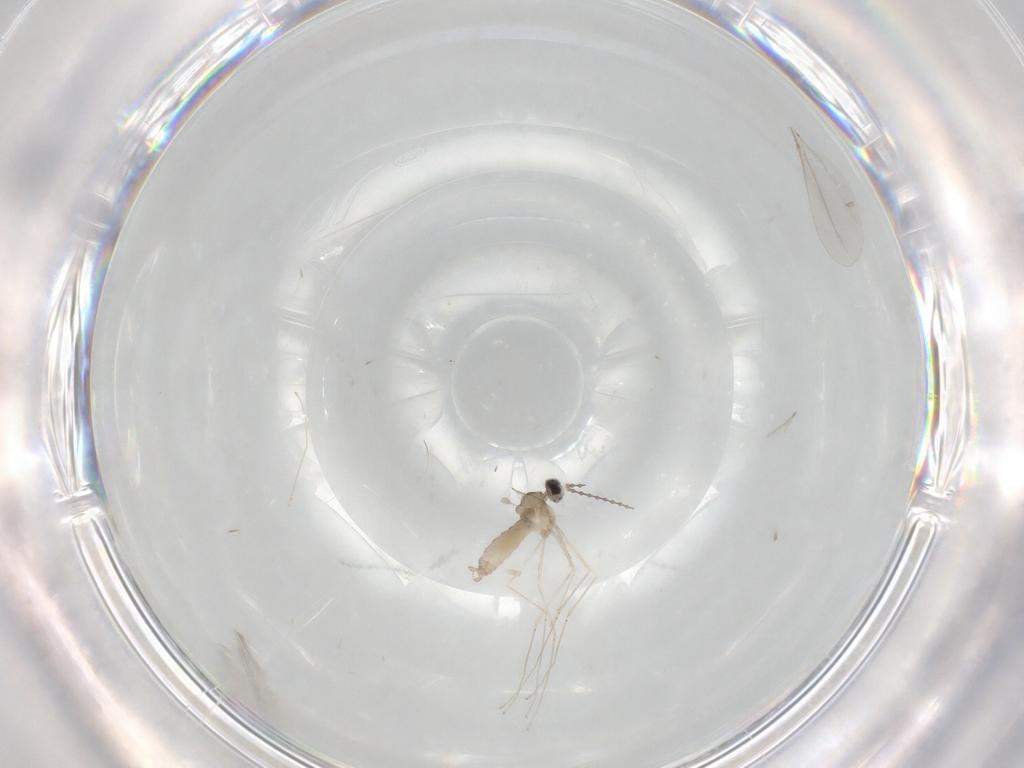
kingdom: Animalia
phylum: Arthropoda
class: Insecta
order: Diptera
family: Cecidomyiidae
